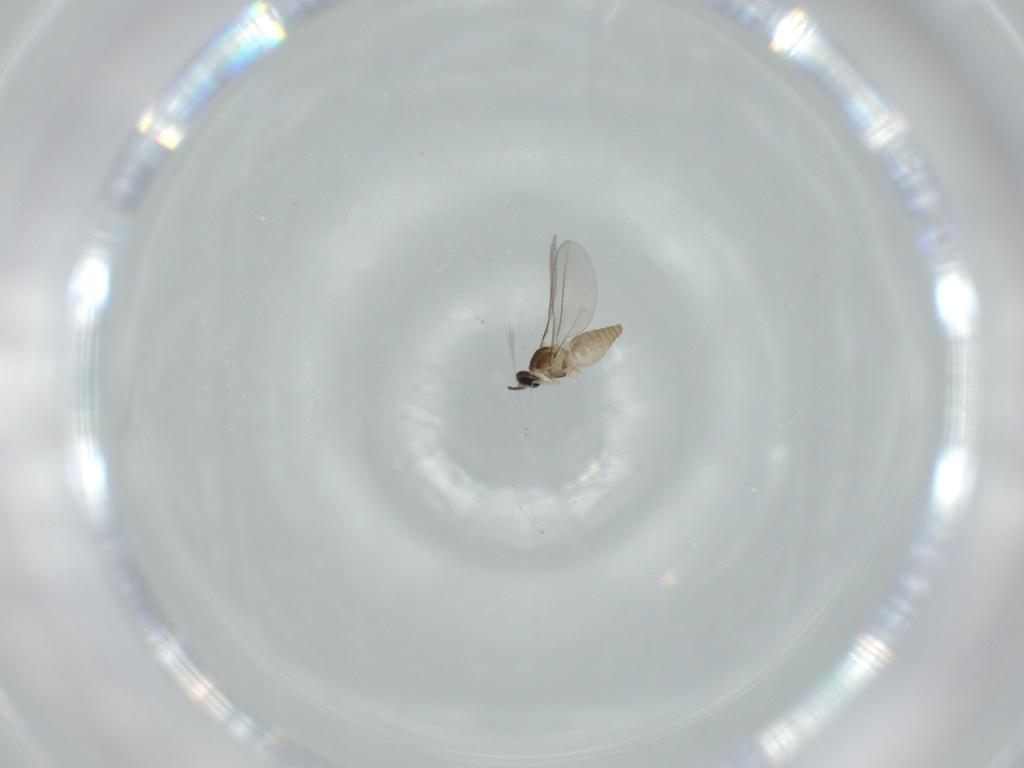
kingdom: Animalia
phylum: Arthropoda
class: Insecta
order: Diptera
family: Cecidomyiidae
